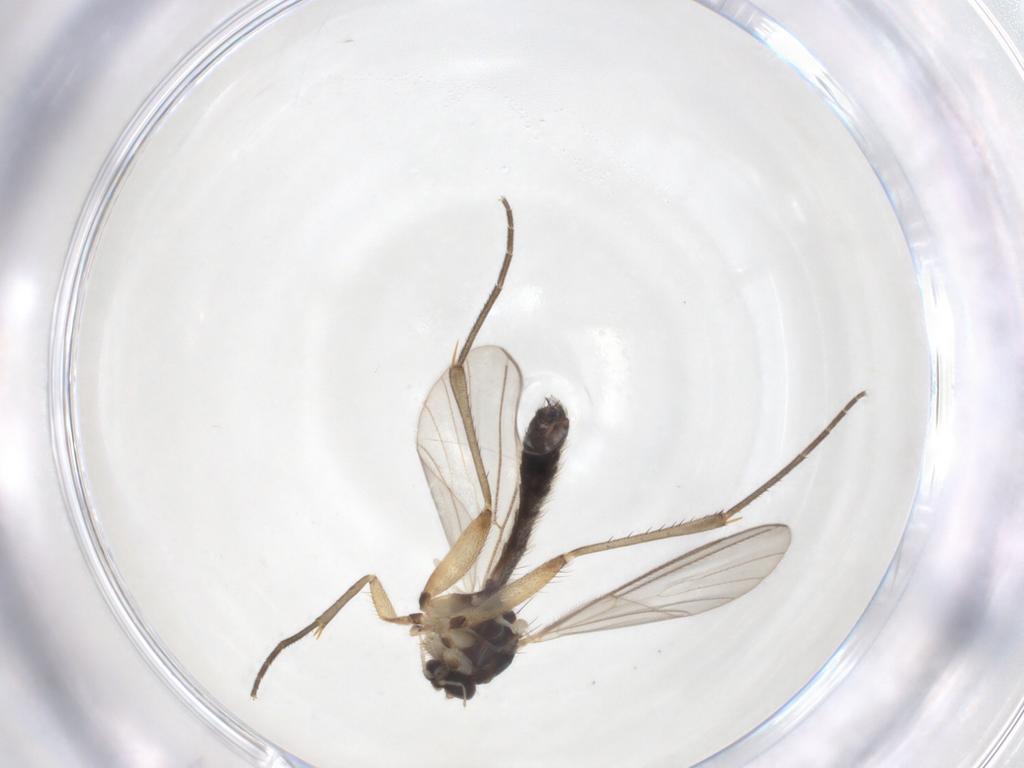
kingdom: Animalia
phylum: Arthropoda
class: Insecta
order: Diptera
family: Mycetophilidae
